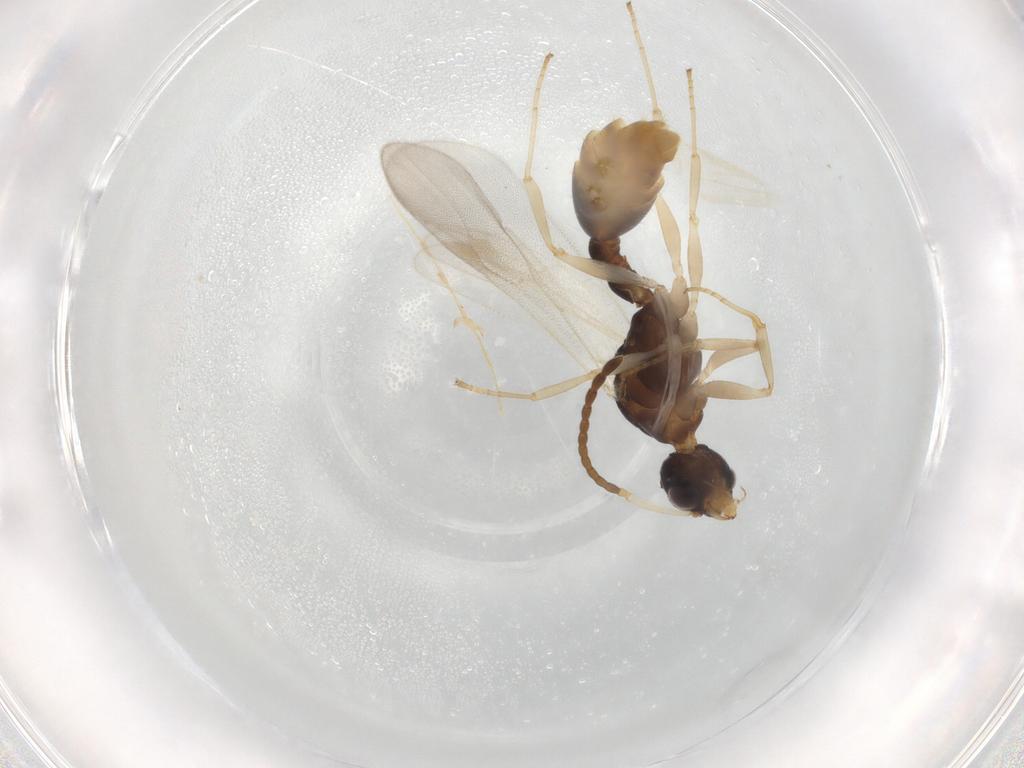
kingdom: Animalia
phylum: Arthropoda
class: Insecta
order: Hymenoptera
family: Formicidae
